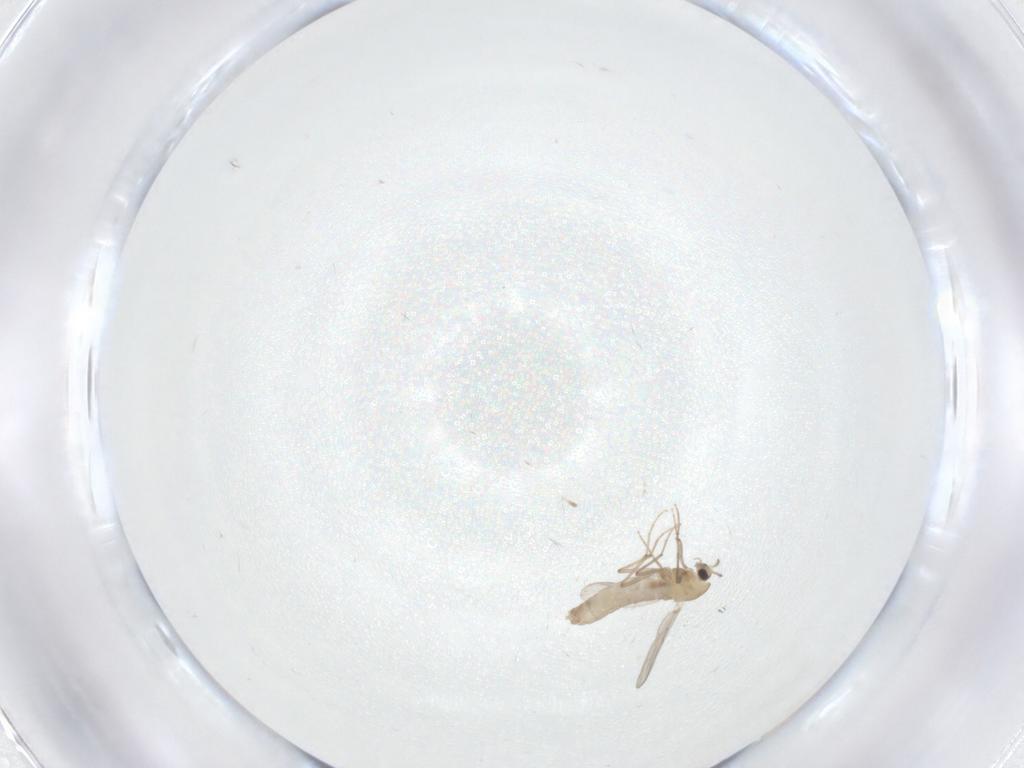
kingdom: Animalia
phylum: Arthropoda
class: Insecta
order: Diptera
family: Chironomidae
